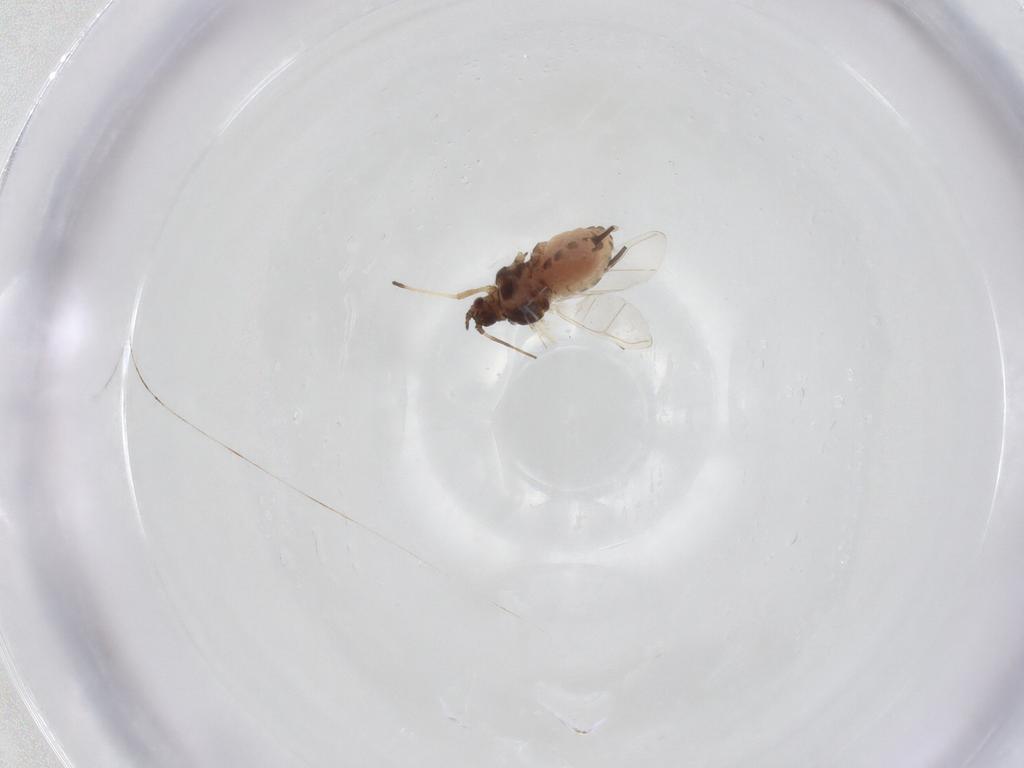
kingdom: Animalia
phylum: Arthropoda
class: Insecta
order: Hemiptera
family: Aphididae
